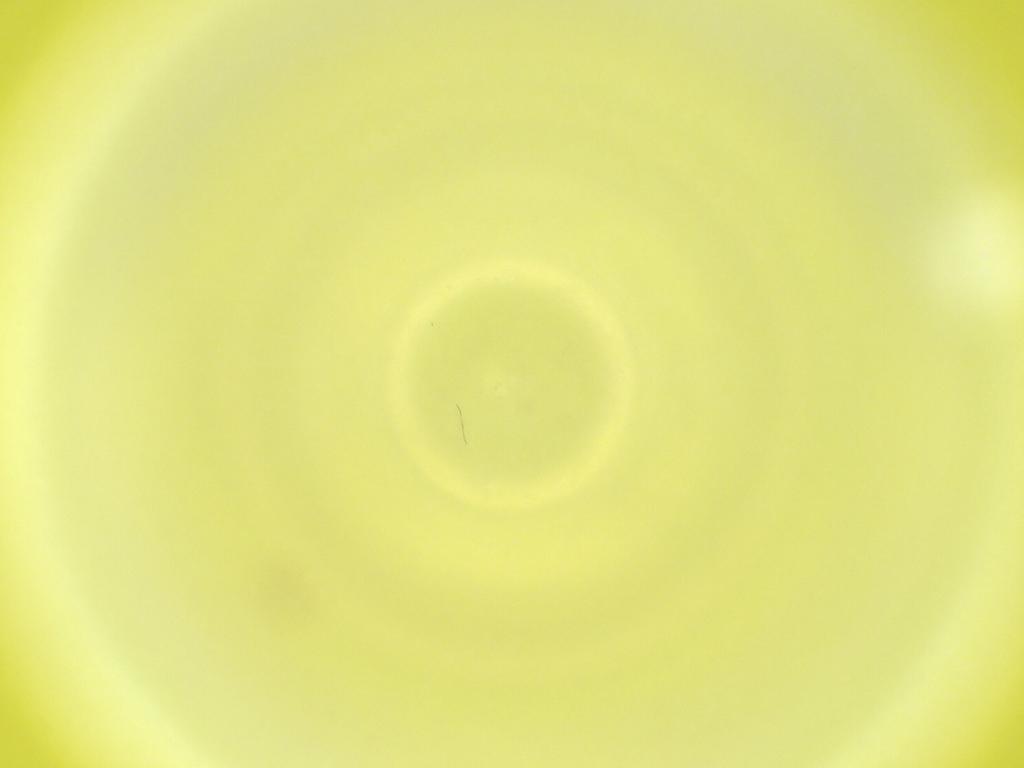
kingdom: Animalia
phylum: Arthropoda
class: Insecta
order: Diptera
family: Cecidomyiidae
